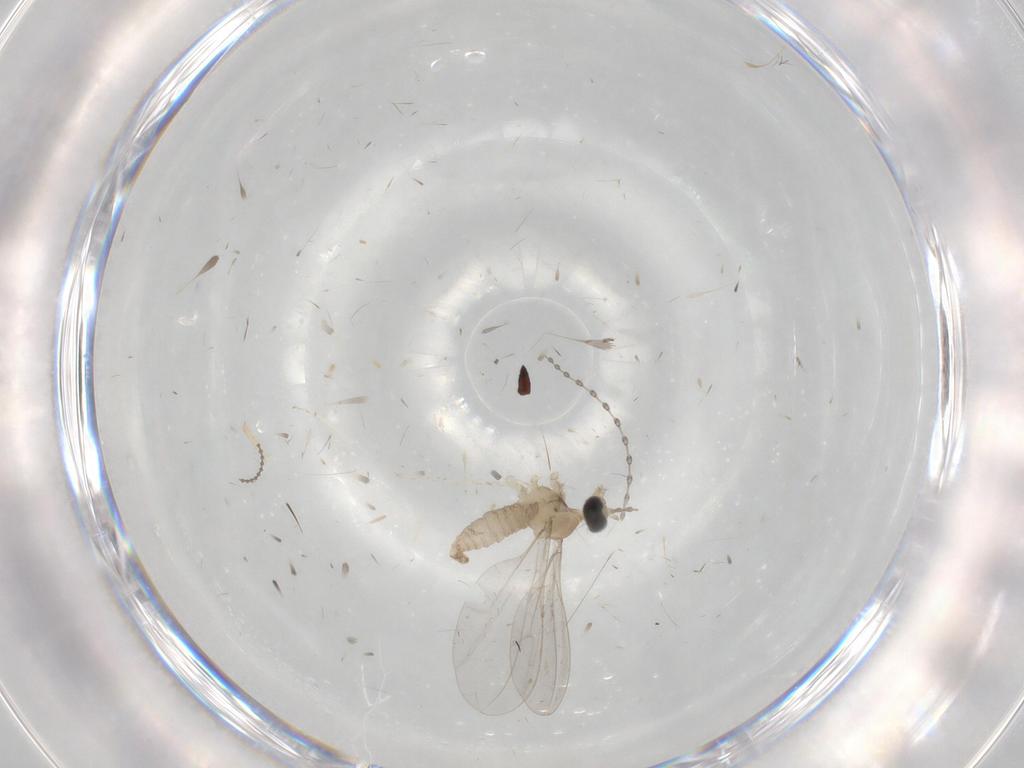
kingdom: Animalia
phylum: Arthropoda
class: Insecta
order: Diptera
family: Cecidomyiidae
